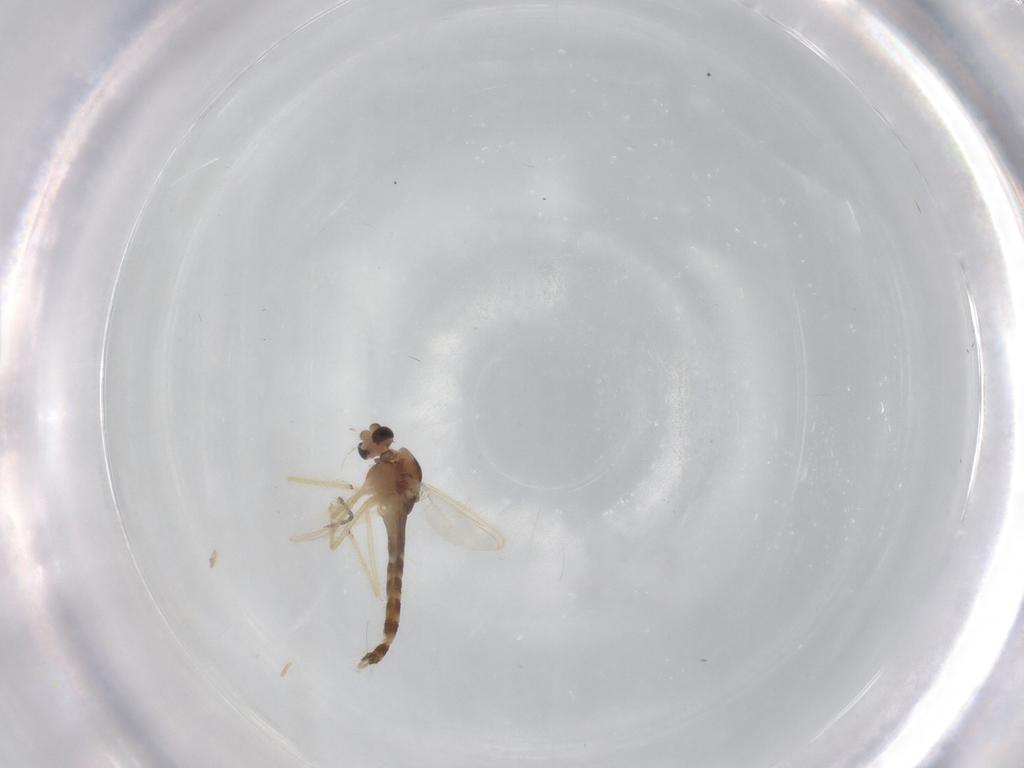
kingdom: Animalia
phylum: Arthropoda
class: Insecta
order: Diptera
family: Chironomidae
